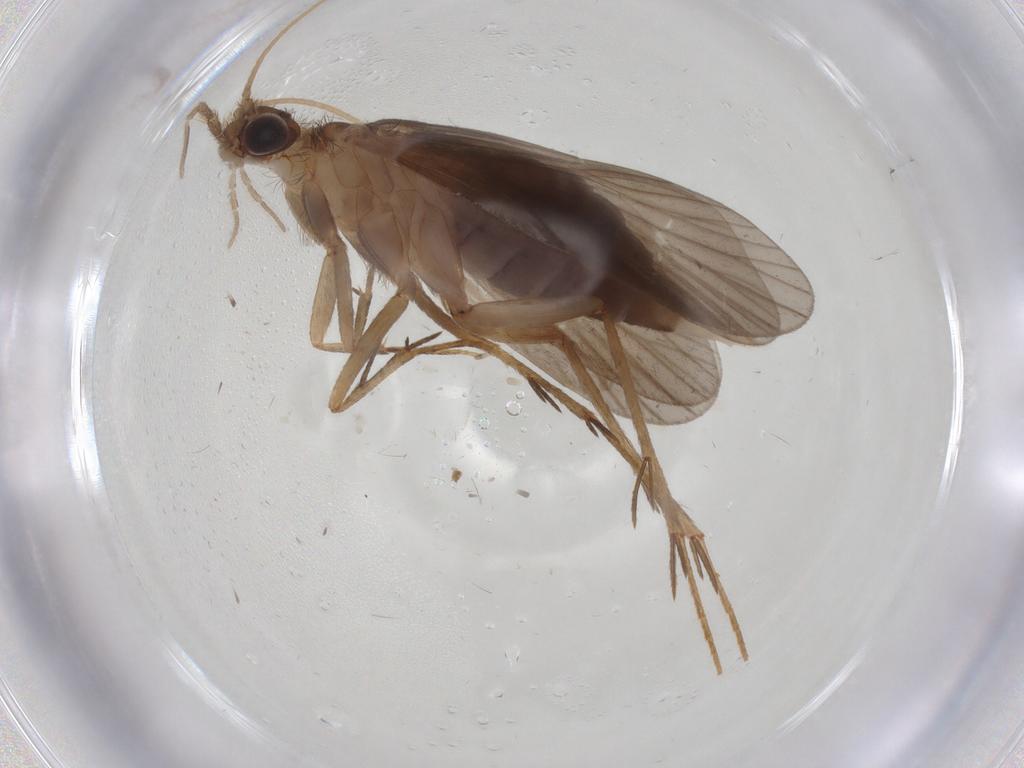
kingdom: Animalia
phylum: Arthropoda
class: Insecta
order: Trichoptera
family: Philopotamidae
